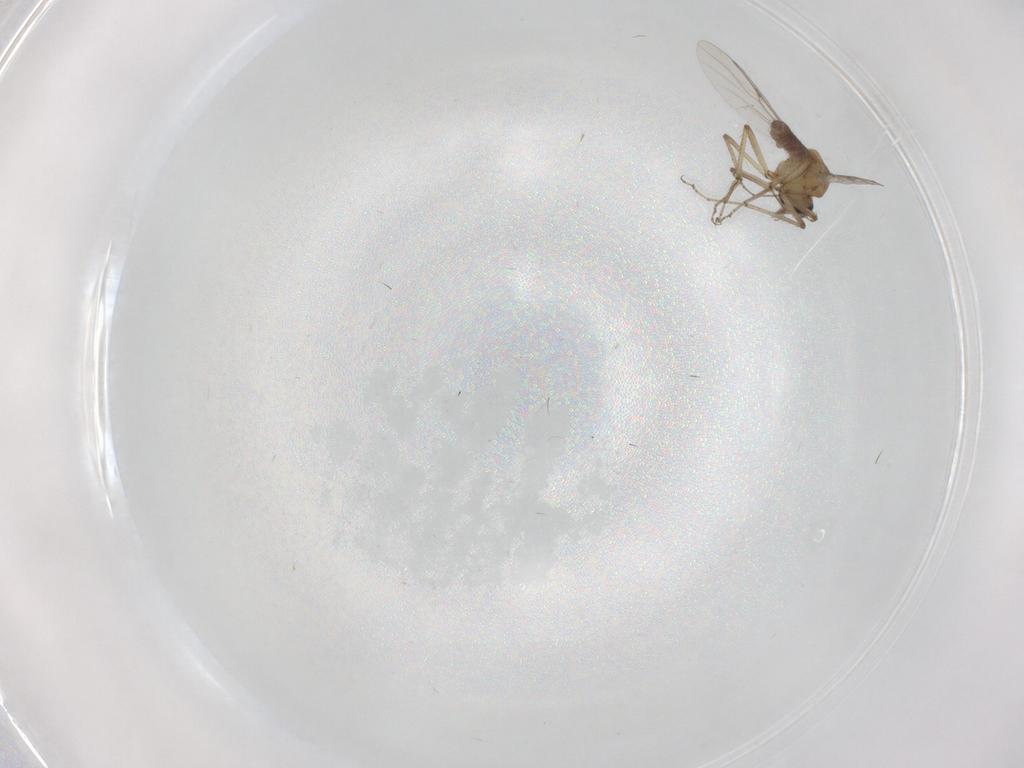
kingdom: Animalia
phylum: Arthropoda
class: Insecta
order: Diptera
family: Ceratopogonidae
